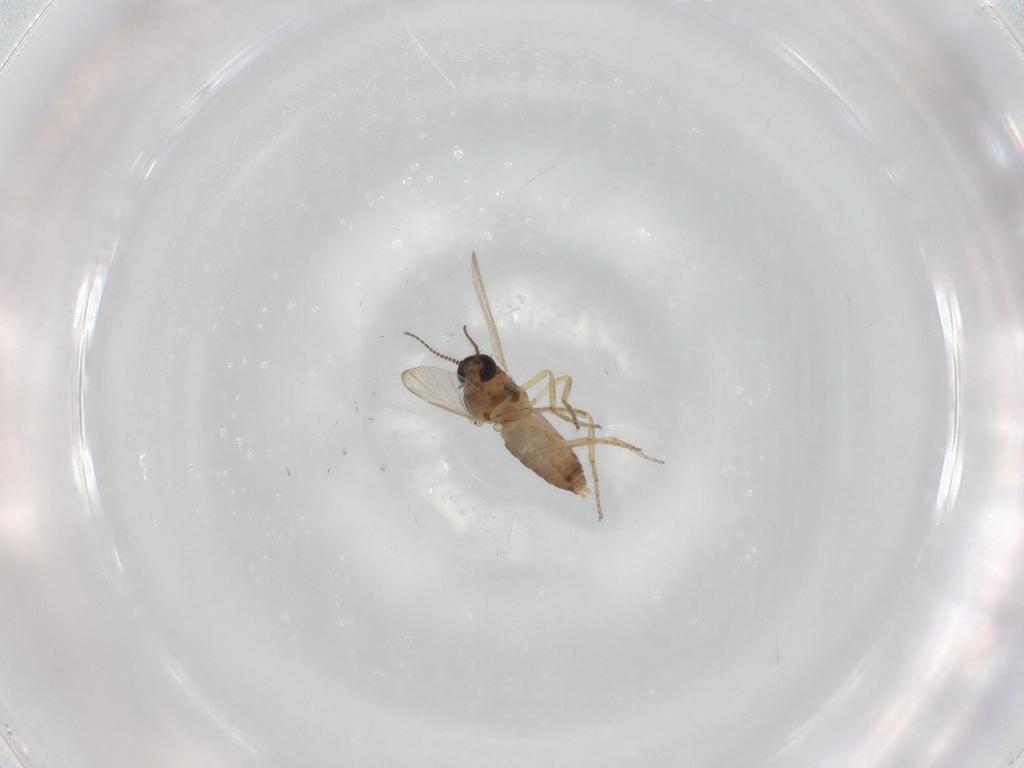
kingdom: Animalia
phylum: Arthropoda
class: Insecta
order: Diptera
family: Ceratopogonidae
